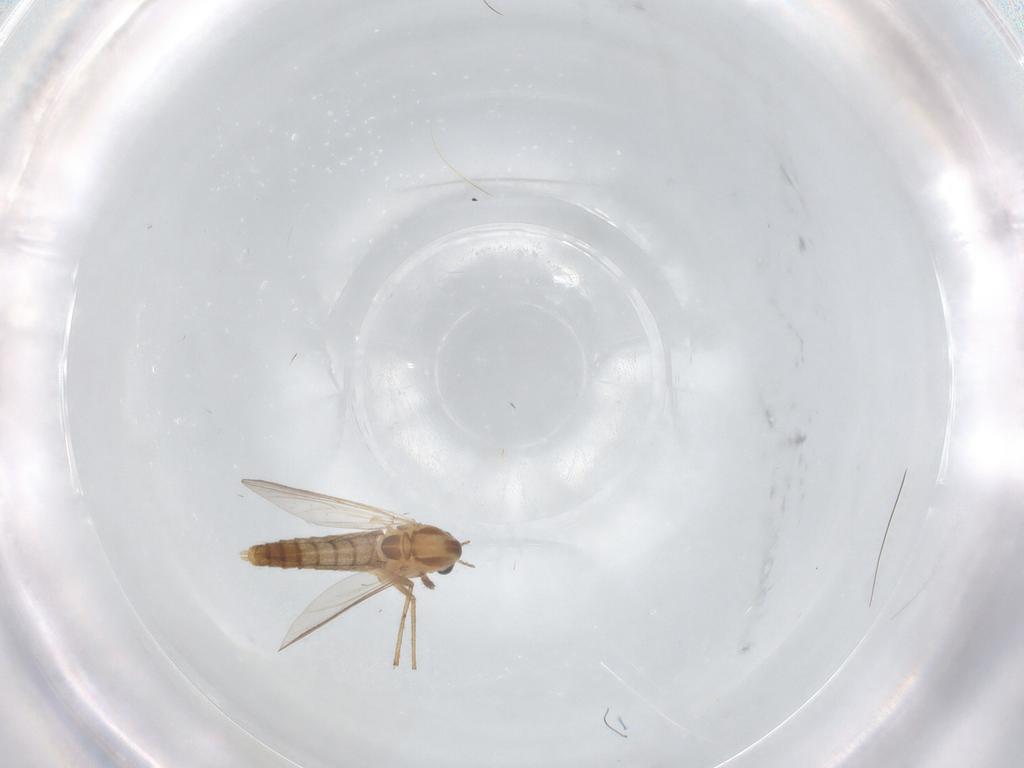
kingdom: Animalia
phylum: Arthropoda
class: Insecta
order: Diptera
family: Chironomidae
